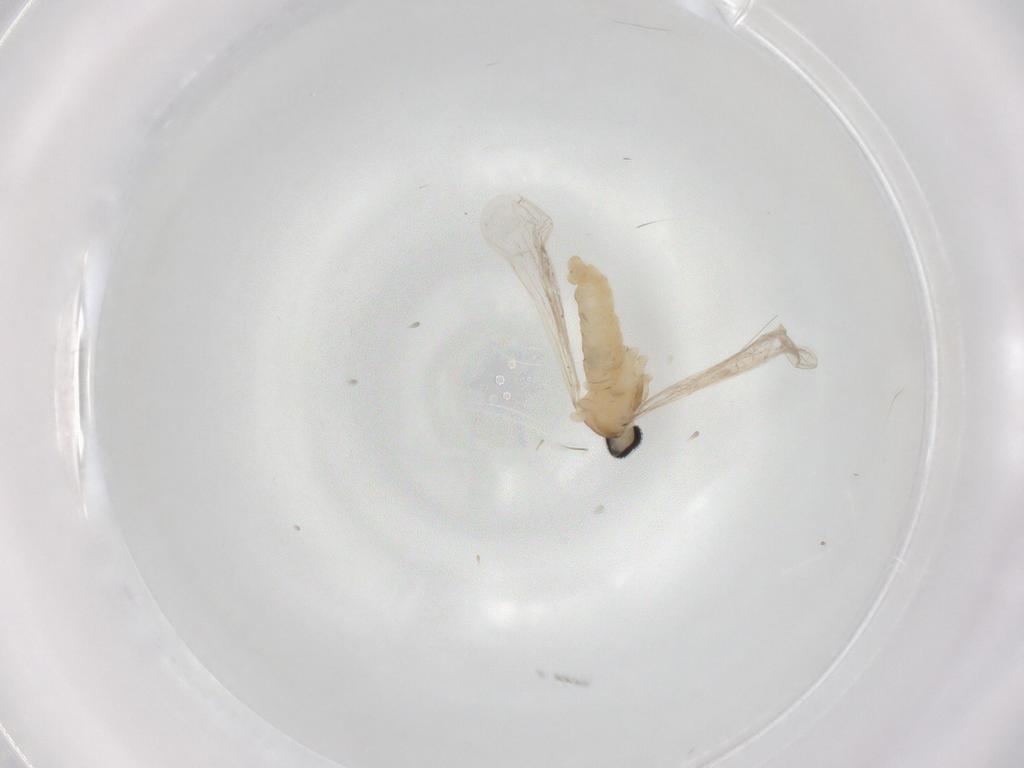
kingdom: Animalia
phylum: Arthropoda
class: Insecta
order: Diptera
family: Cecidomyiidae
